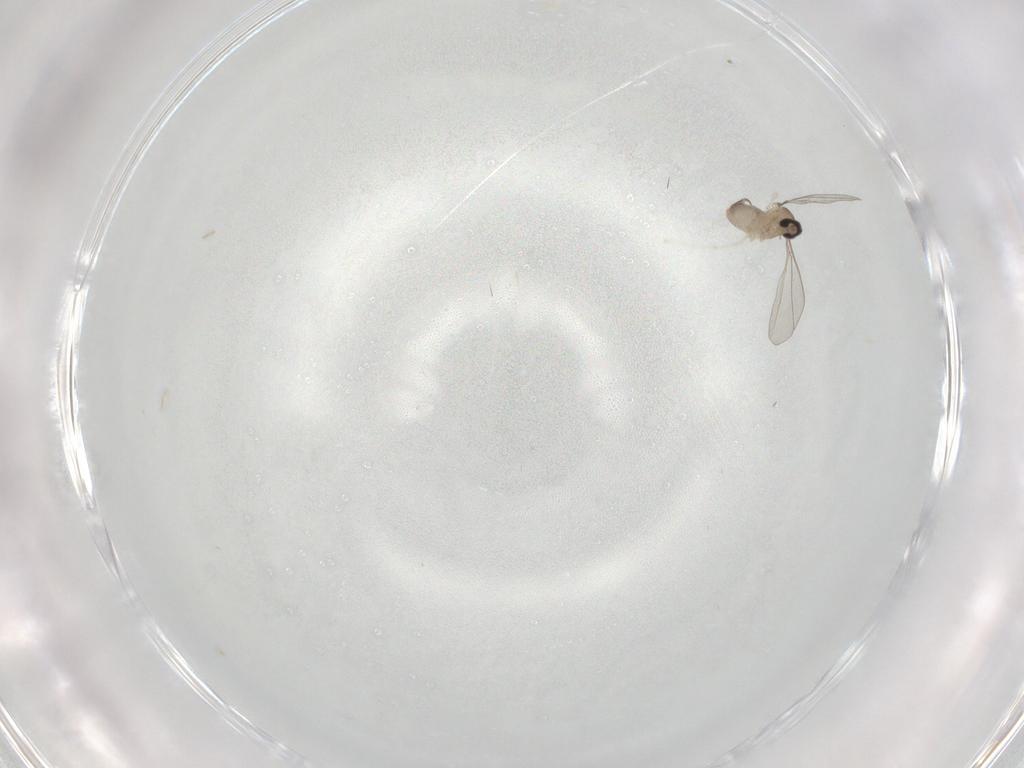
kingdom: Animalia
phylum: Arthropoda
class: Insecta
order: Diptera
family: Cecidomyiidae
